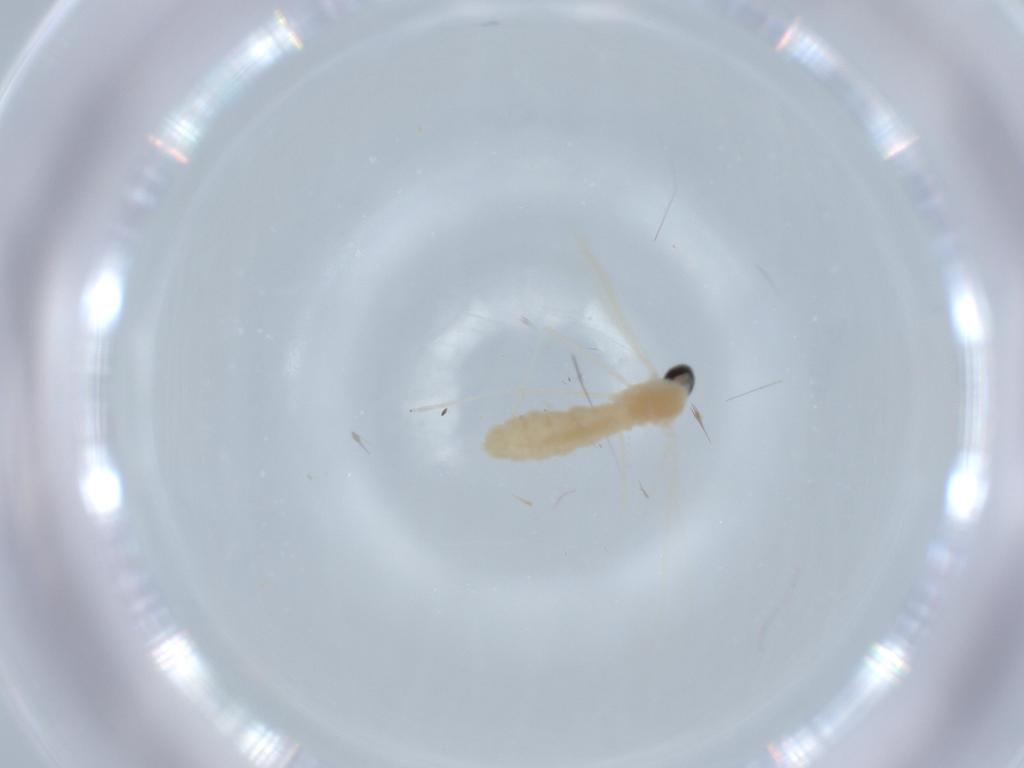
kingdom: Animalia
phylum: Arthropoda
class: Insecta
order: Diptera
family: Cecidomyiidae
